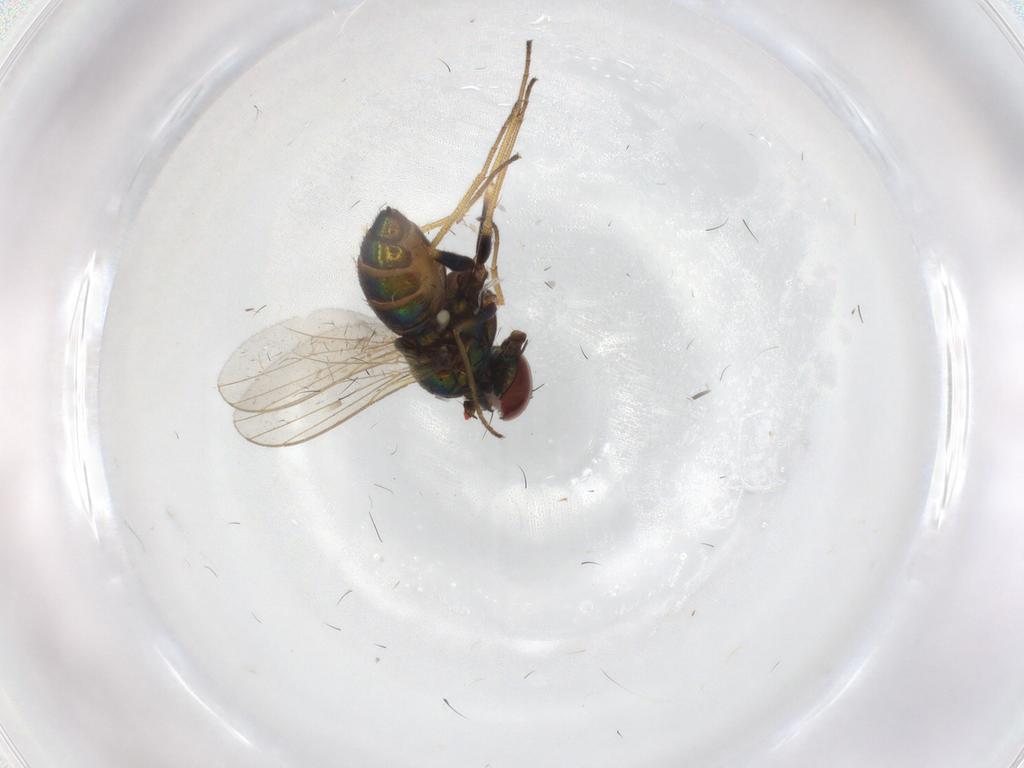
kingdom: Animalia
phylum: Arthropoda
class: Insecta
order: Diptera
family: Dolichopodidae
